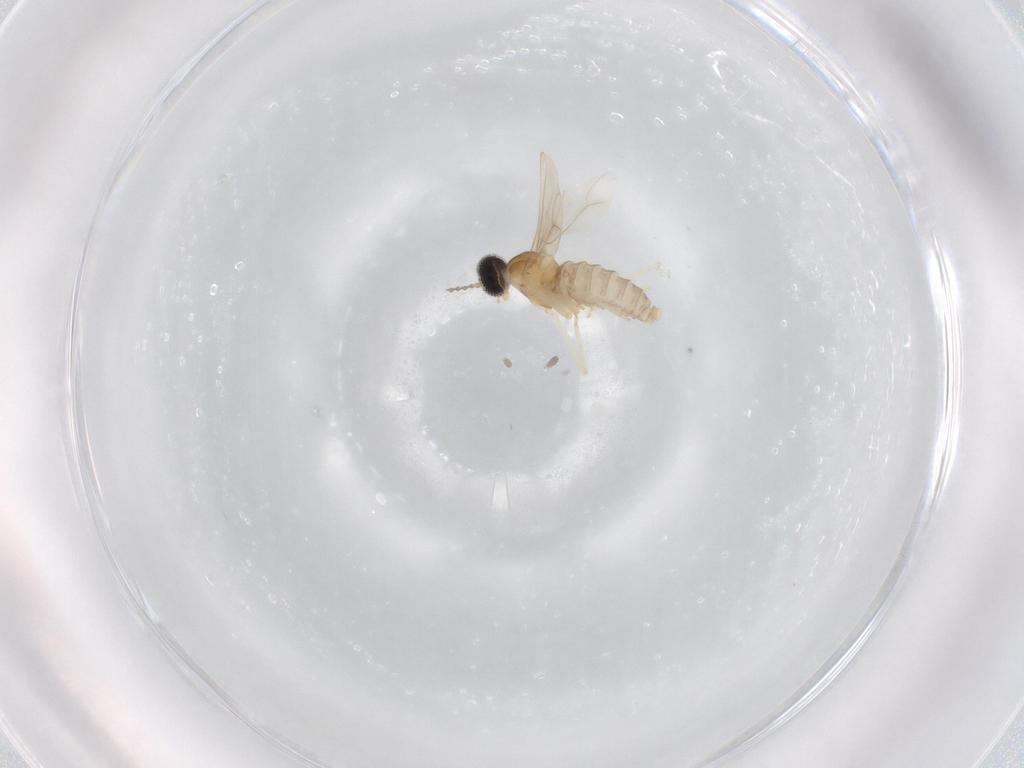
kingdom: Animalia
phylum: Arthropoda
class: Insecta
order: Diptera
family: Cecidomyiidae
